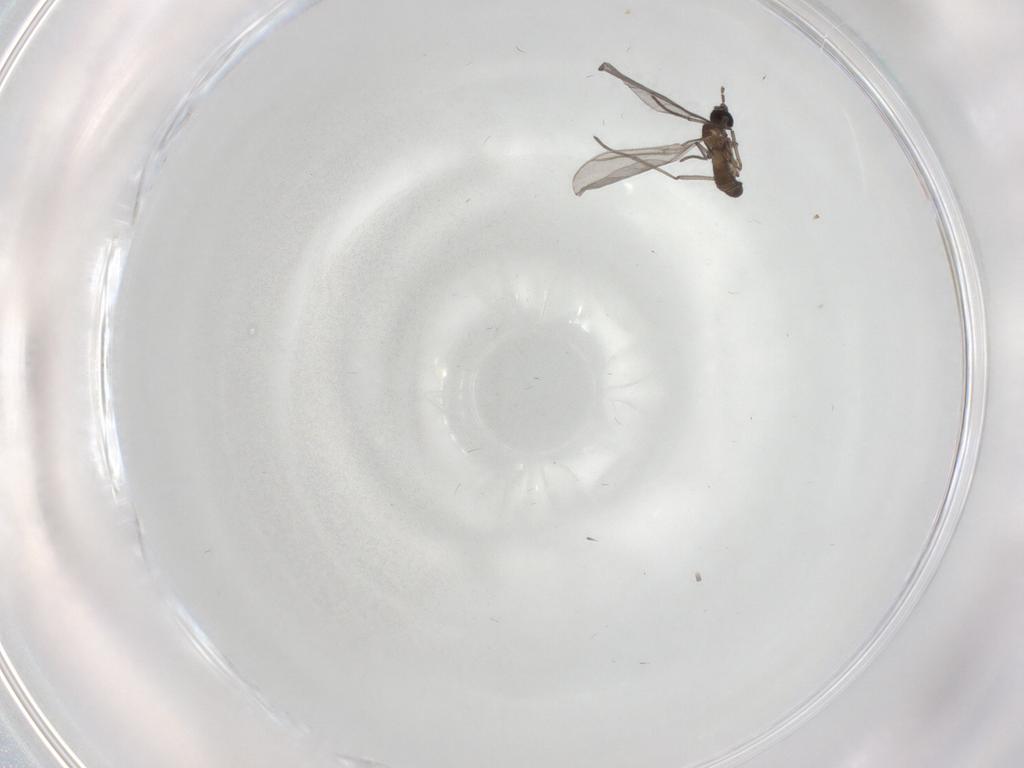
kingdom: Animalia
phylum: Arthropoda
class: Insecta
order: Diptera
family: Sciaridae
